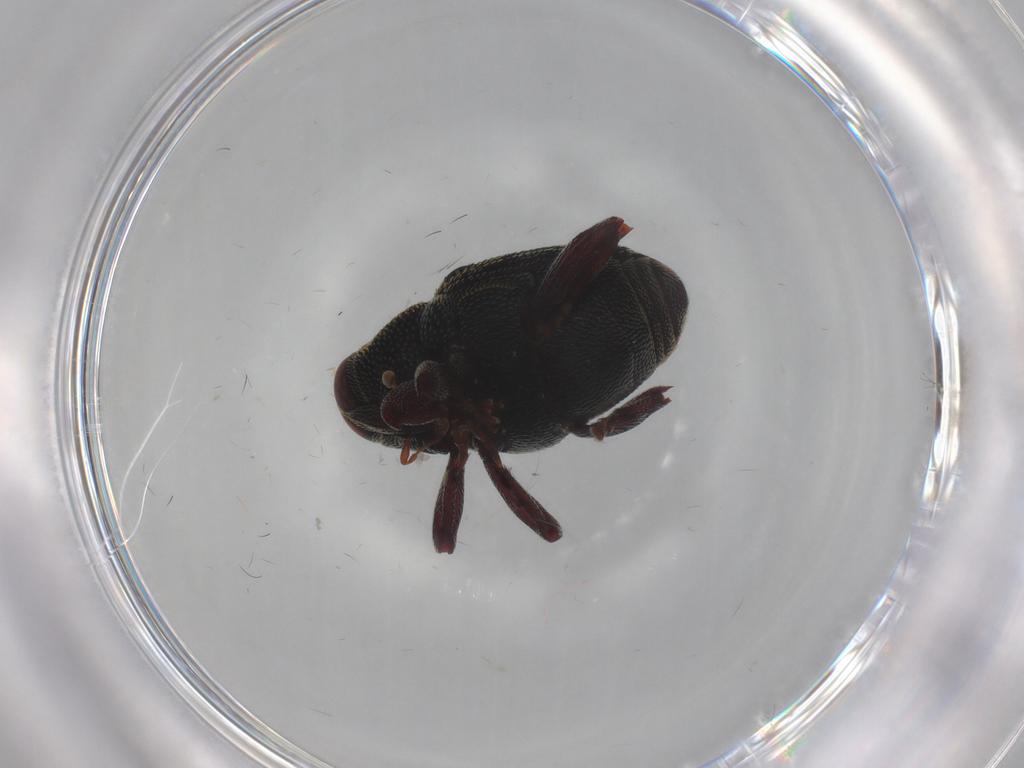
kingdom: Animalia
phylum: Arthropoda
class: Insecta
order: Coleoptera
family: Curculionidae
